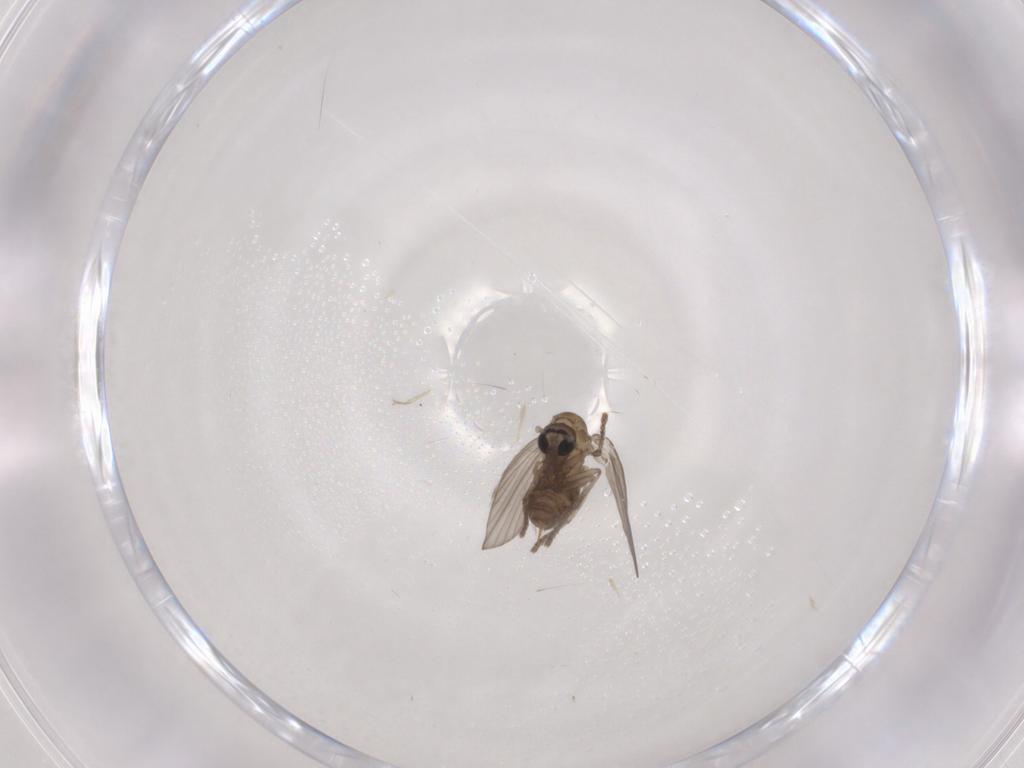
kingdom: Animalia
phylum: Arthropoda
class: Insecta
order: Diptera
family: Psychodidae
